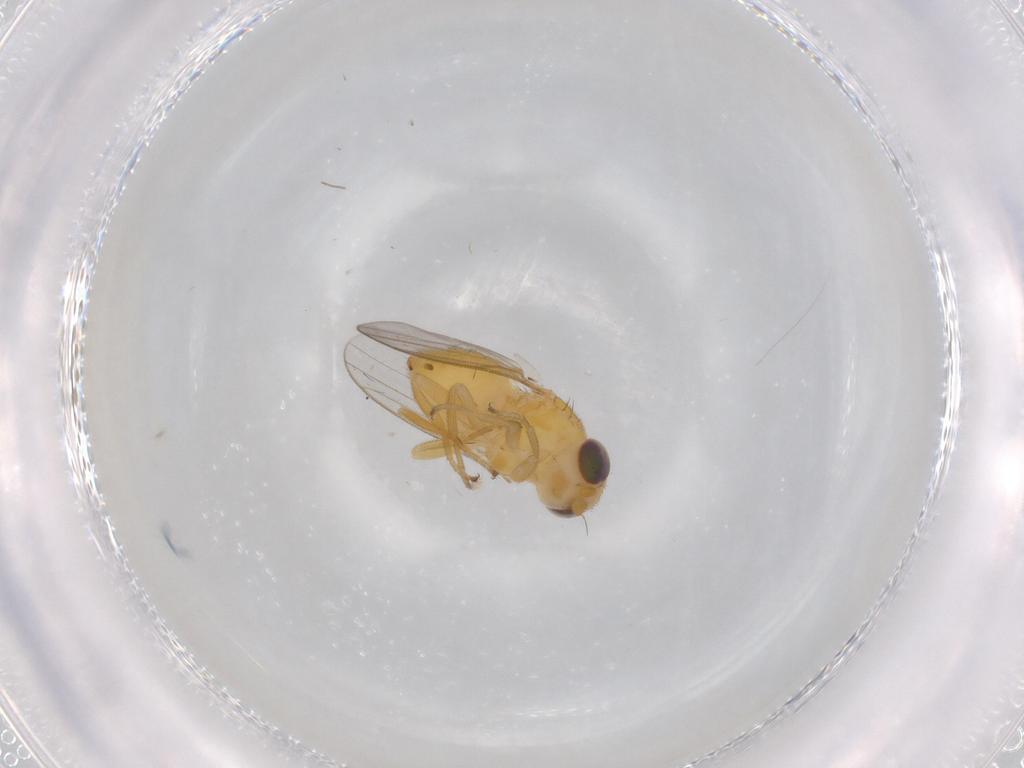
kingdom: Animalia
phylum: Arthropoda
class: Insecta
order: Diptera
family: Chloropidae
